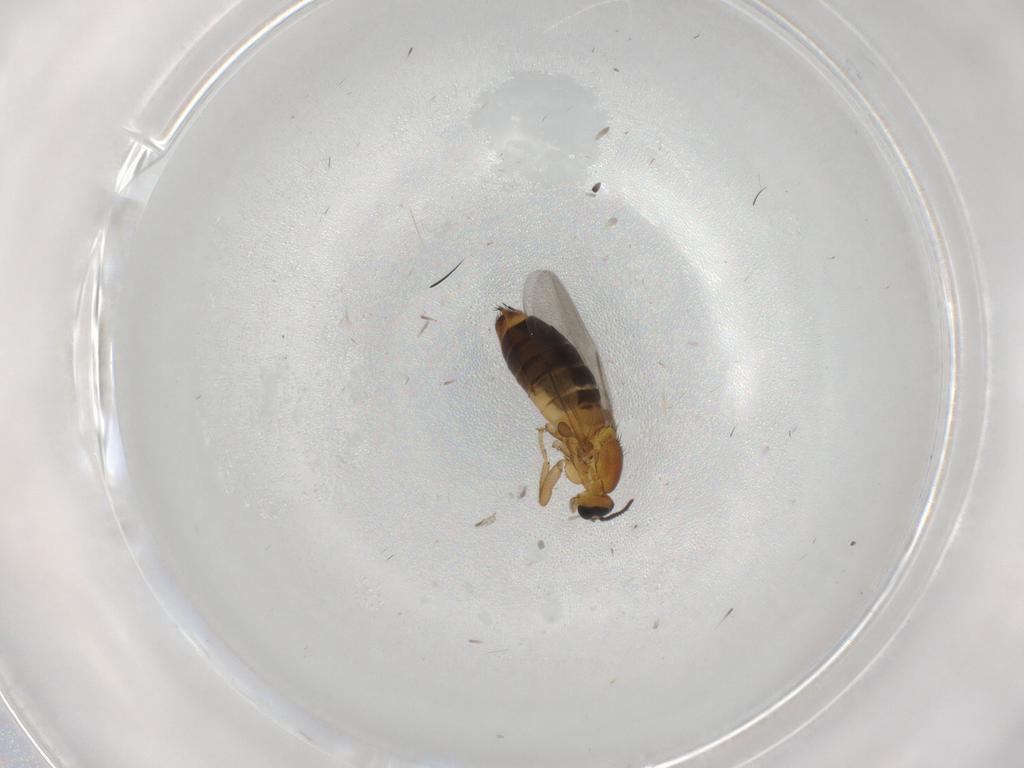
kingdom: Animalia
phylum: Arthropoda
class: Insecta
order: Diptera
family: Scatopsidae
